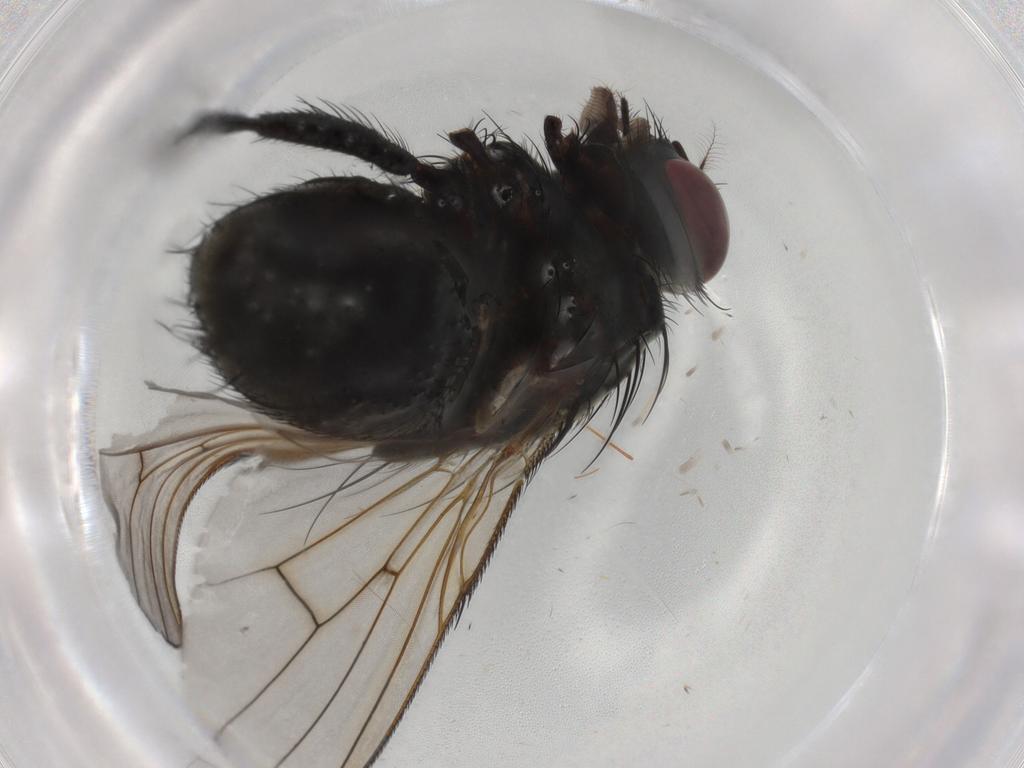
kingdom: Animalia
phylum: Arthropoda
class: Insecta
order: Diptera
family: Muscidae
